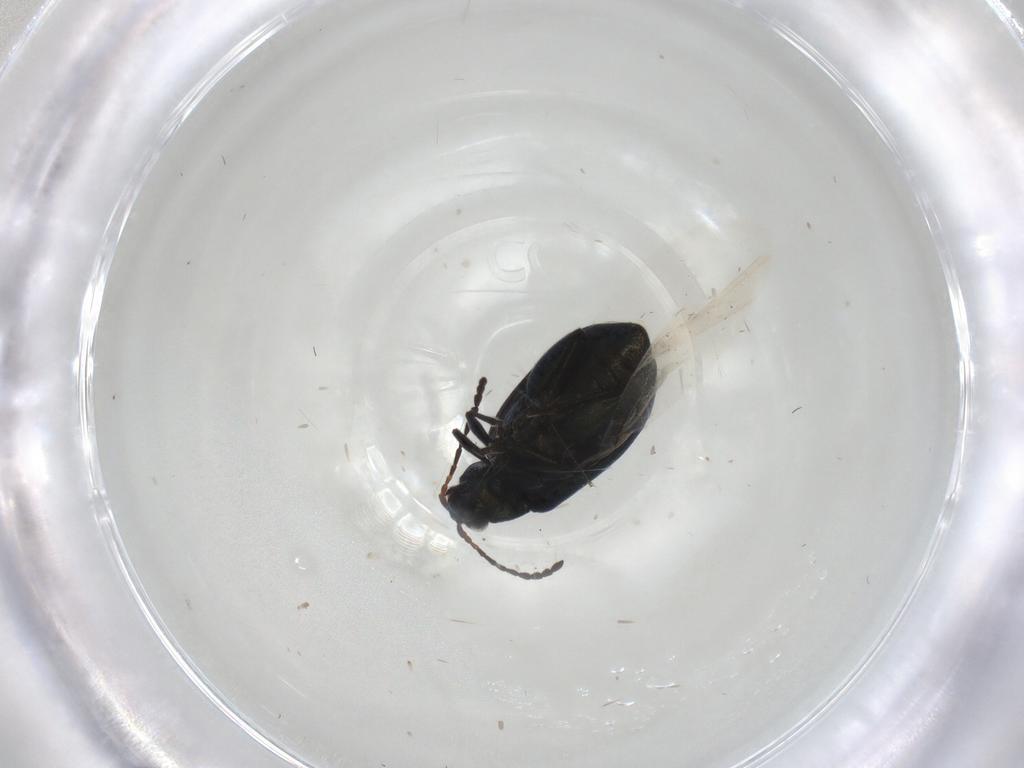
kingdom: Animalia
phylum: Arthropoda
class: Insecta
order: Coleoptera
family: Chrysomelidae
